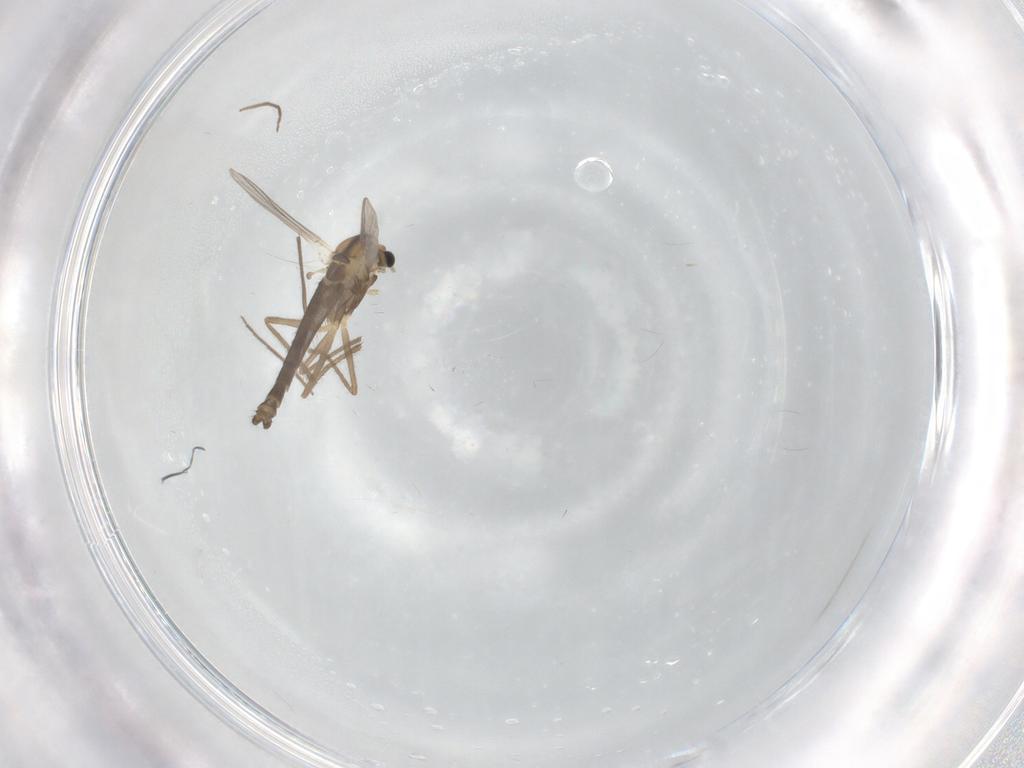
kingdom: Animalia
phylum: Arthropoda
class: Insecta
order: Diptera
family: Chironomidae
